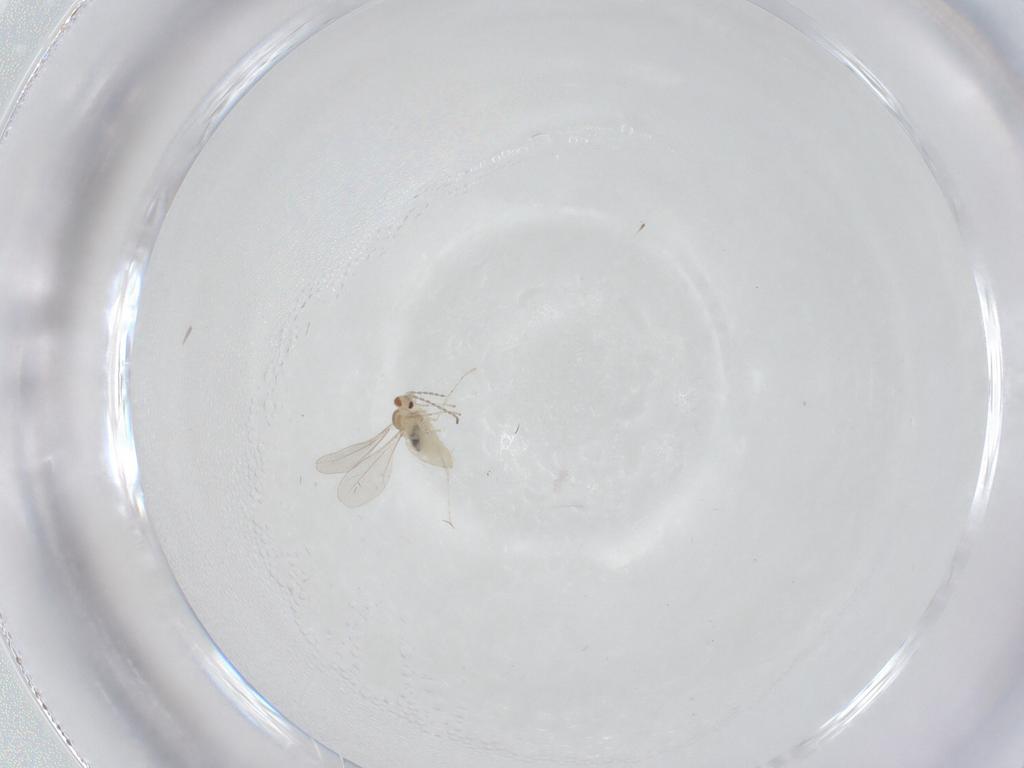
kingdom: Animalia
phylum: Arthropoda
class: Insecta
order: Diptera
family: Cecidomyiidae
